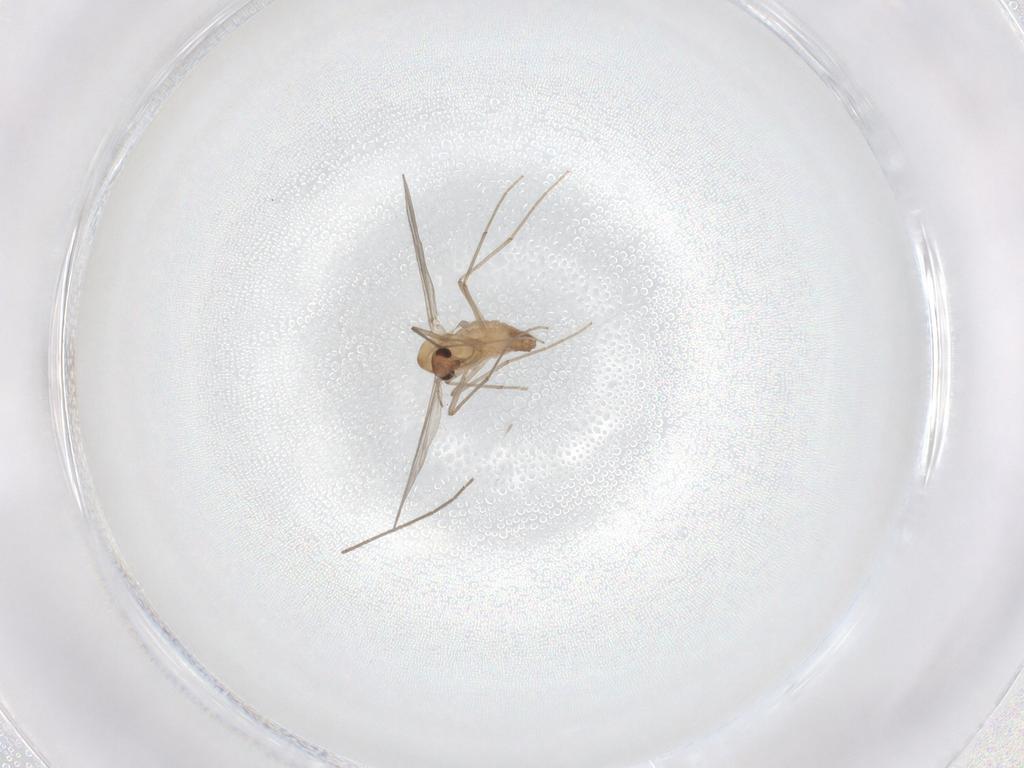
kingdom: Animalia
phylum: Arthropoda
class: Insecta
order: Diptera
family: Chironomidae
